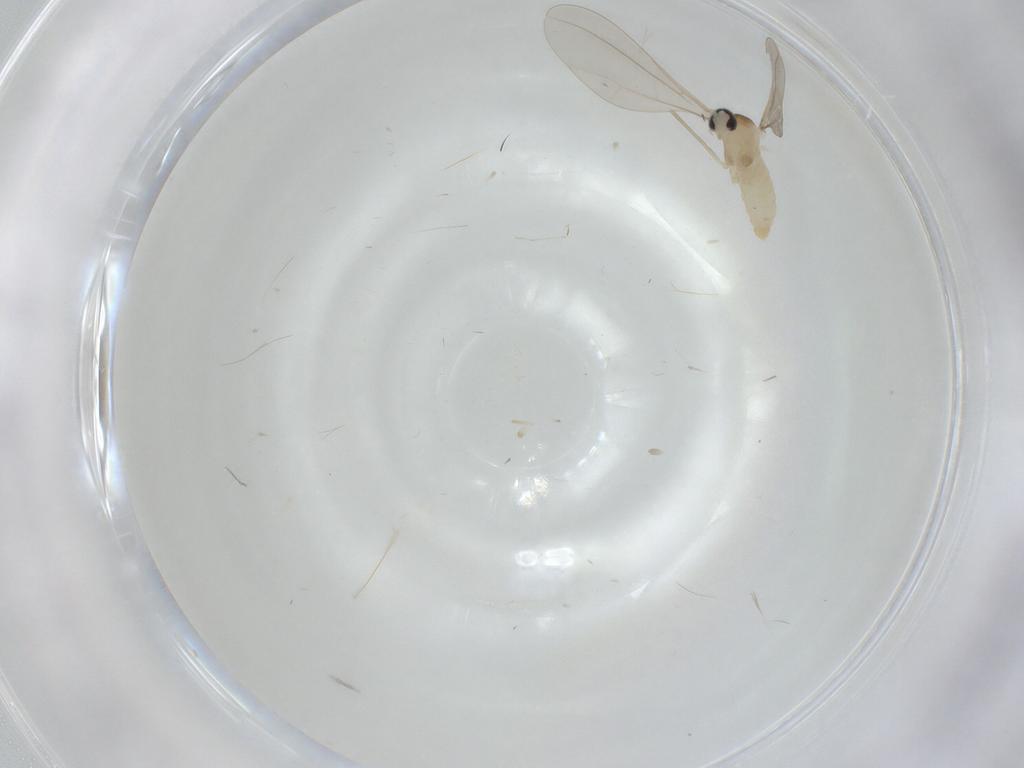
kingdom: Animalia
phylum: Arthropoda
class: Insecta
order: Diptera
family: Cecidomyiidae
